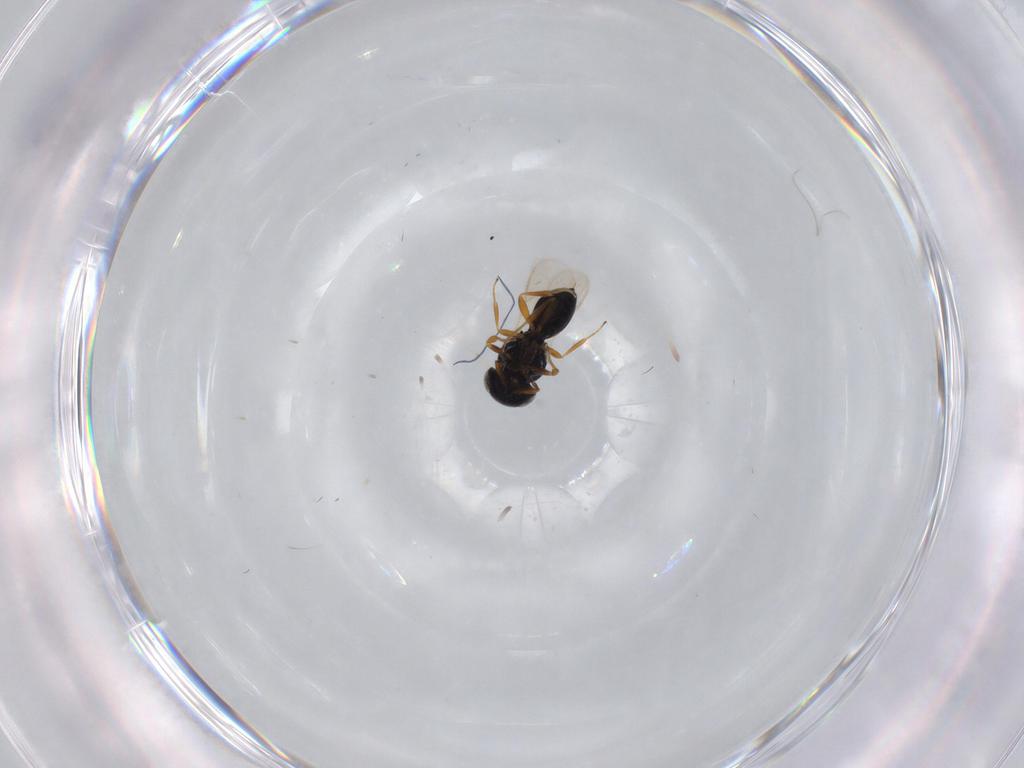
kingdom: Animalia
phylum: Arthropoda
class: Insecta
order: Hymenoptera
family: Scelionidae
